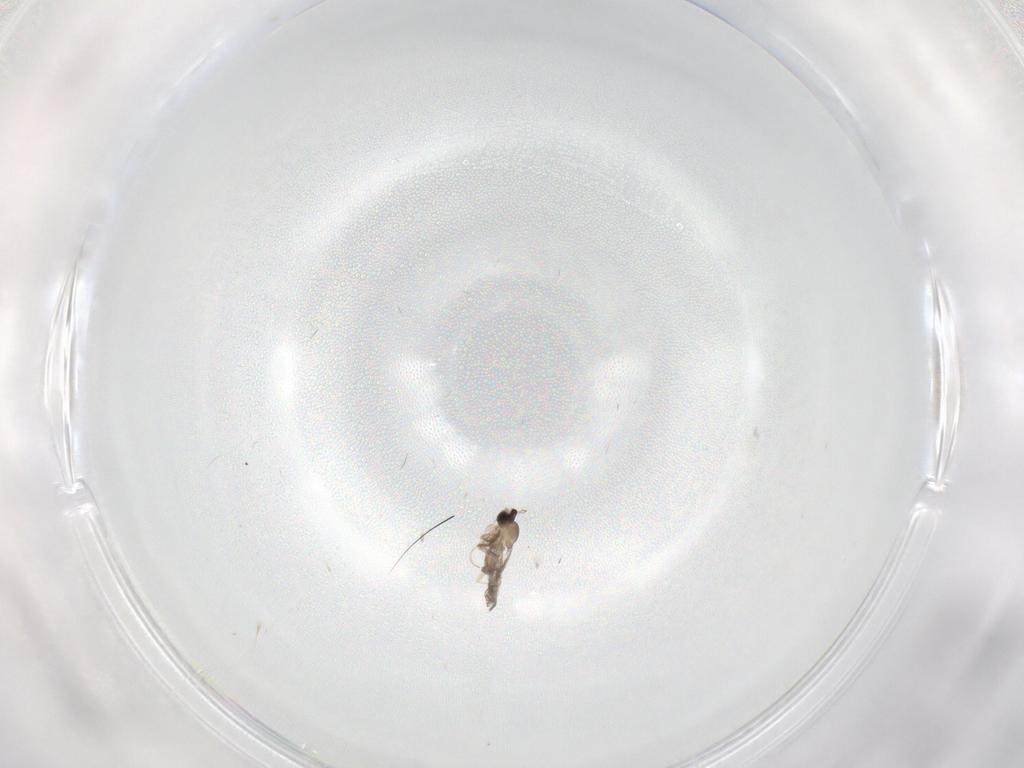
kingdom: Animalia
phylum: Arthropoda
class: Insecta
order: Diptera
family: Cecidomyiidae
